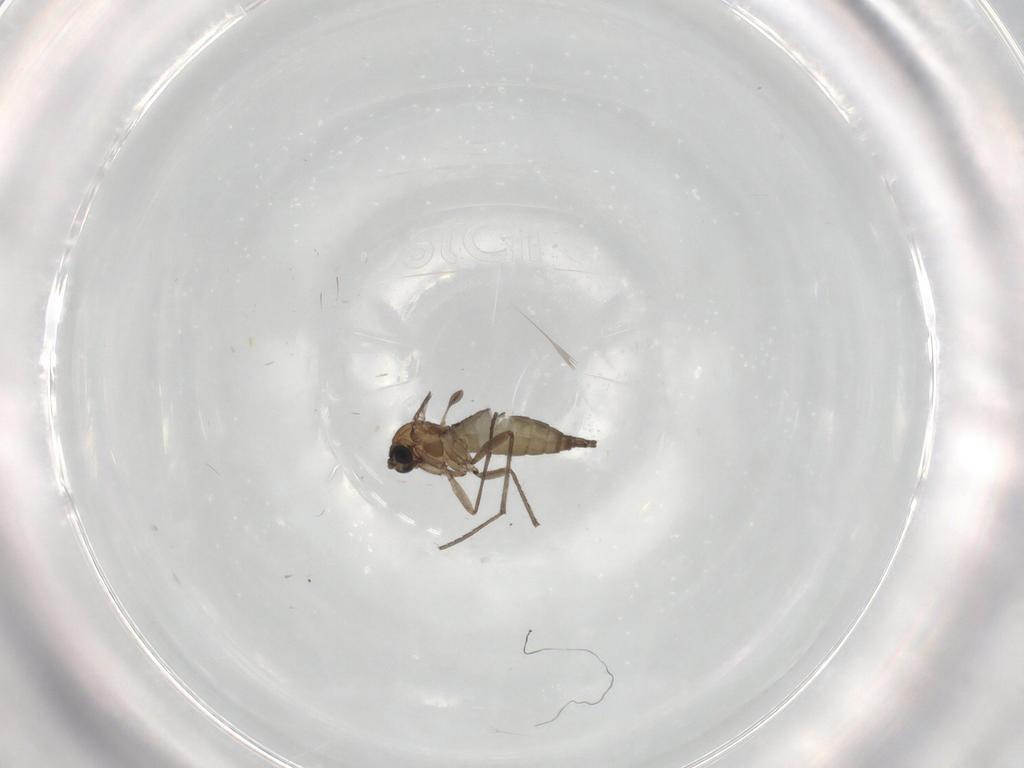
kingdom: Animalia
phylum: Arthropoda
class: Insecta
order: Diptera
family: Sciaridae
